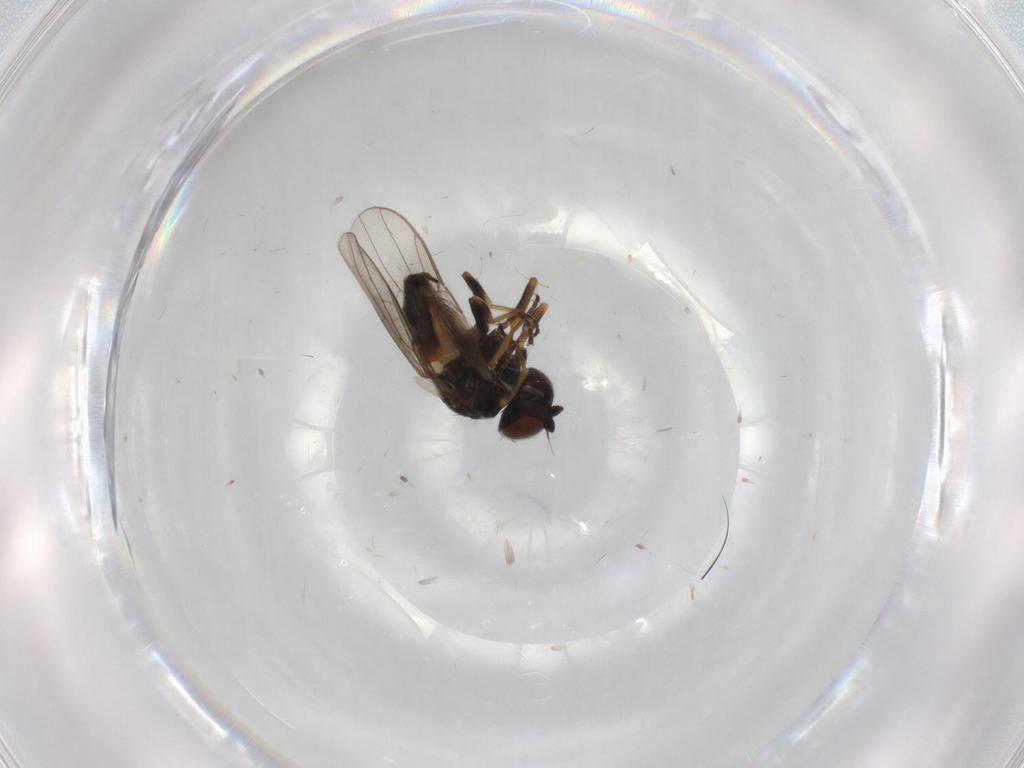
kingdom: Animalia
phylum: Arthropoda
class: Insecta
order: Diptera
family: Chloropidae
